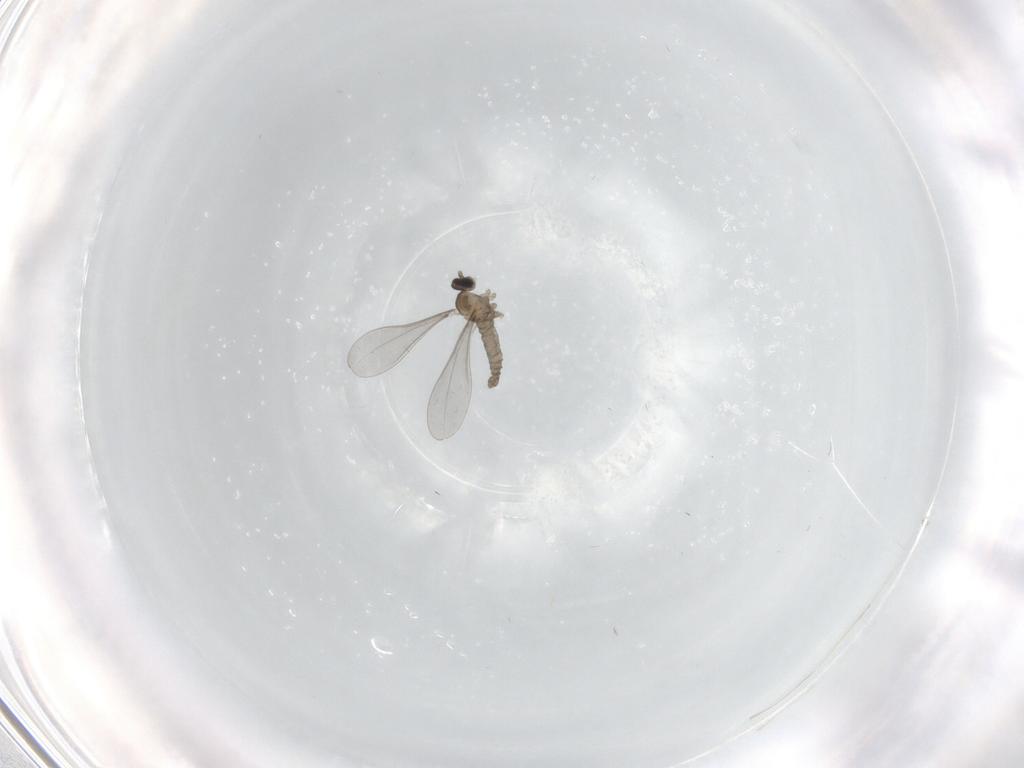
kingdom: Animalia
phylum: Arthropoda
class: Insecta
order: Diptera
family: Cecidomyiidae
